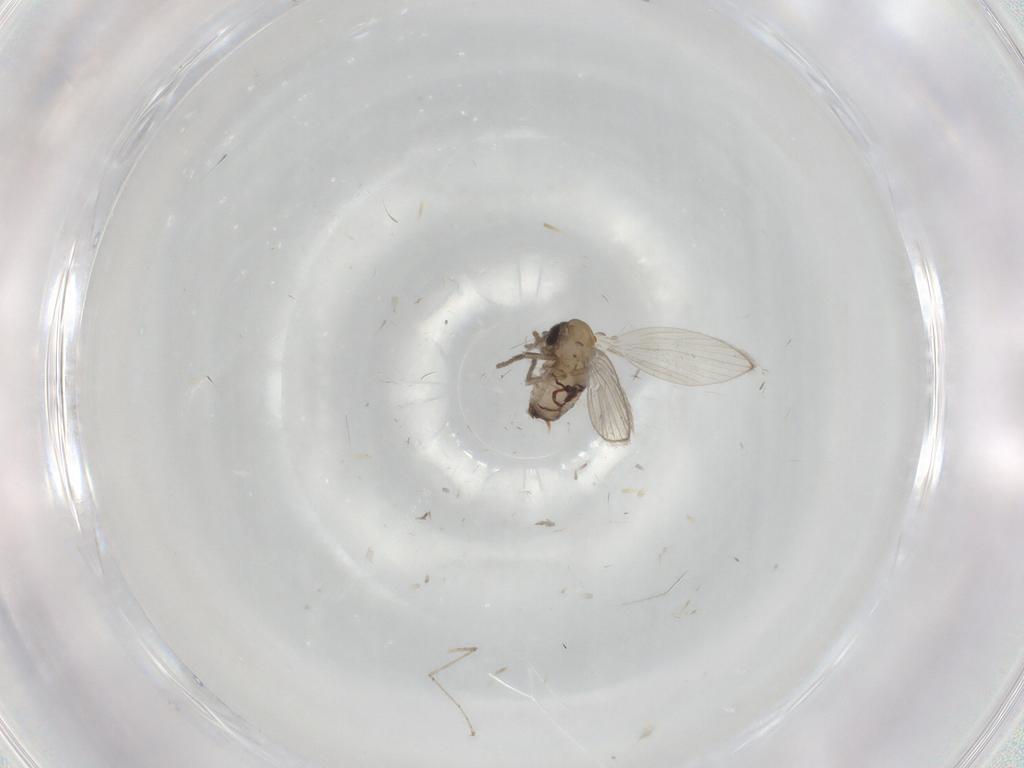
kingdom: Animalia
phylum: Arthropoda
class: Insecta
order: Diptera
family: Psychodidae
